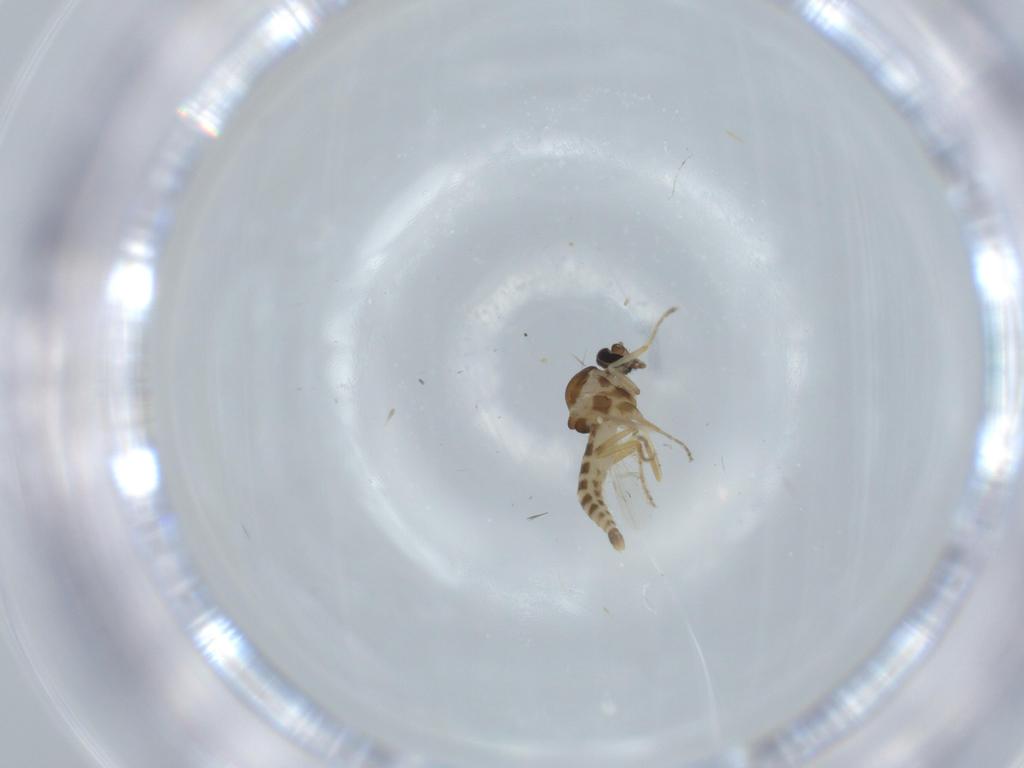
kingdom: Animalia
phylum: Arthropoda
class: Insecta
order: Diptera
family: Ceratopogonidae
